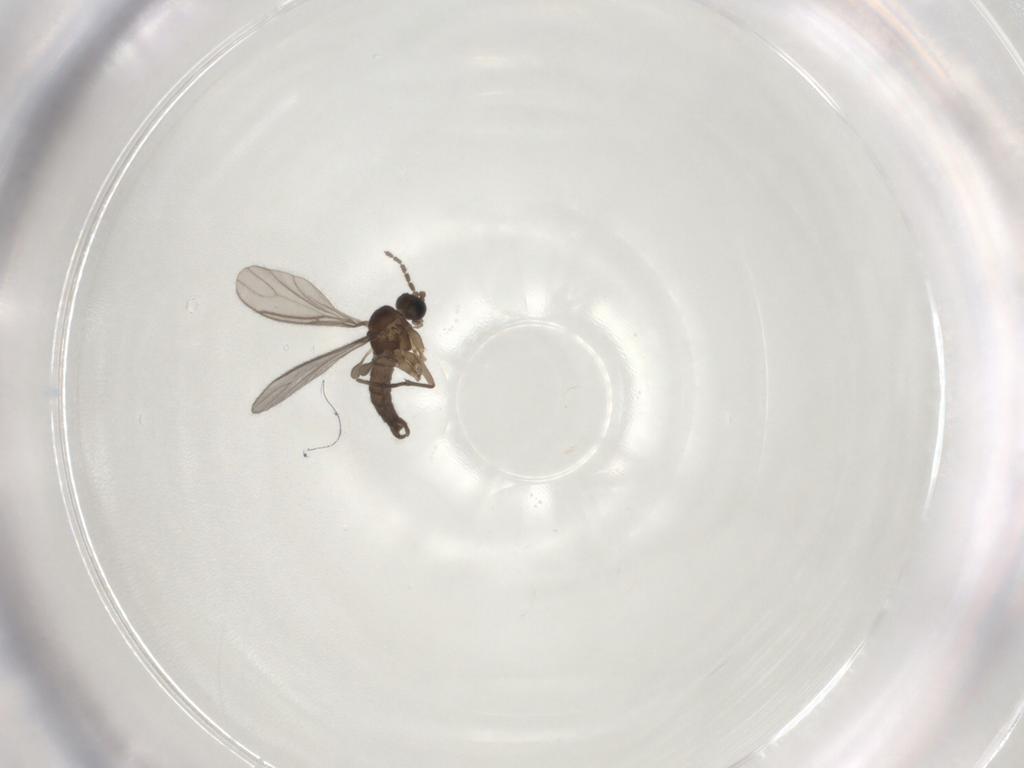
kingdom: Animalia
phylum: Arthropoda
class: Insecta
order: Diptera
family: Sciaridae
